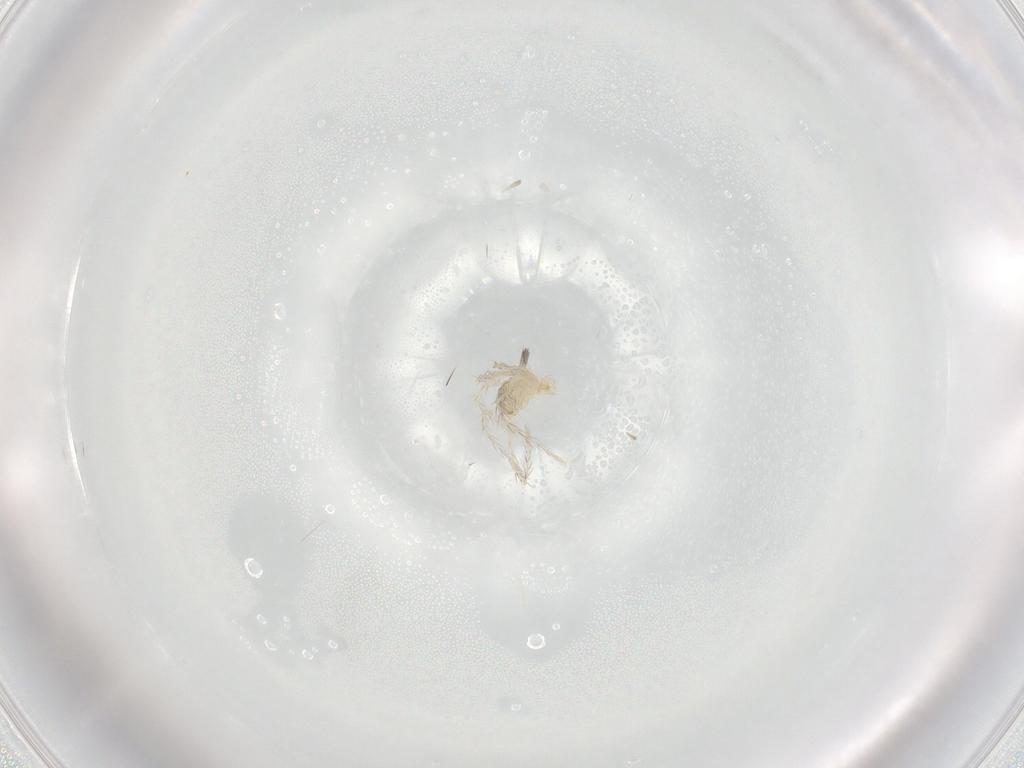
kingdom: Animalia
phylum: Arthropoda
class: Arachnida
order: Trombidiformes
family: Erythraeidae
